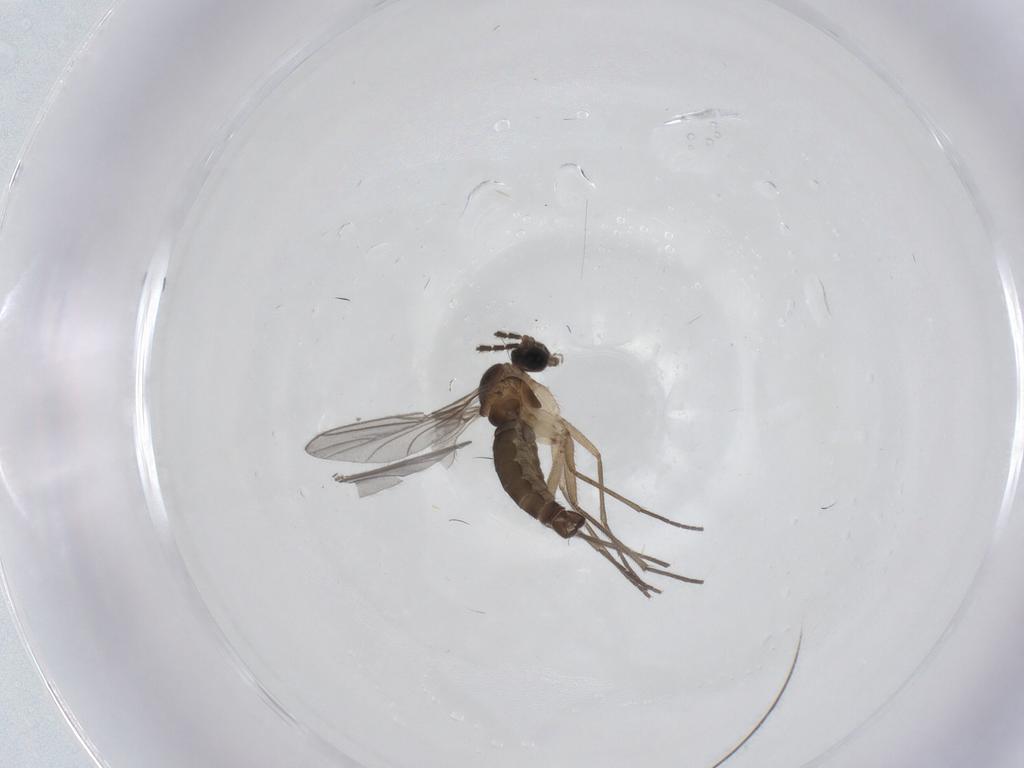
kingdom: Animalia
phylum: Arthropoda
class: Insecta
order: Diptera
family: Sciaridae
